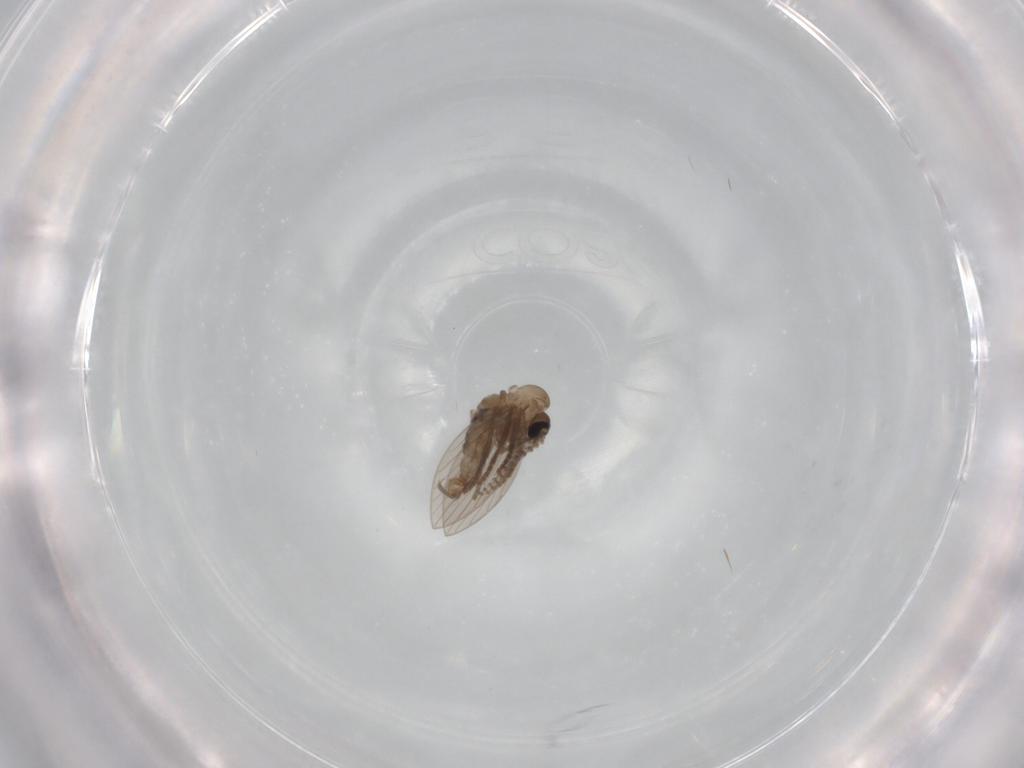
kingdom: Animalia
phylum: Arthropoda
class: Insecta
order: Diptera
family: Psychodidae
